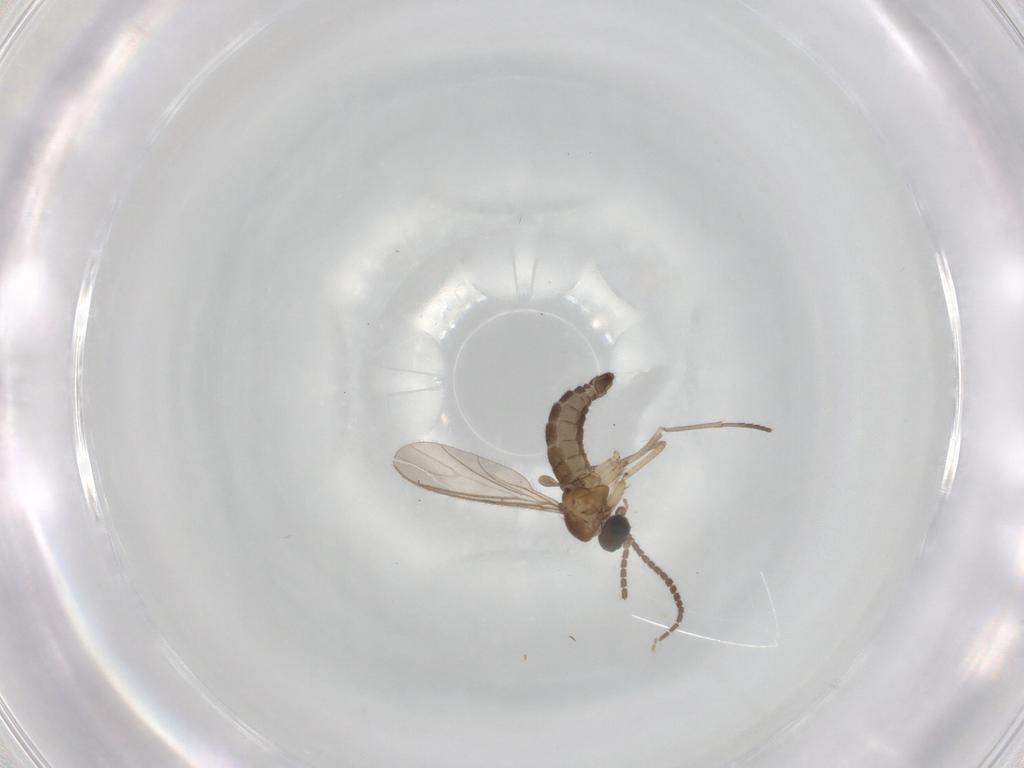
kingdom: Animalia
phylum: Arthropoda
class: Insecta
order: Diptera
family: Sciaridae
